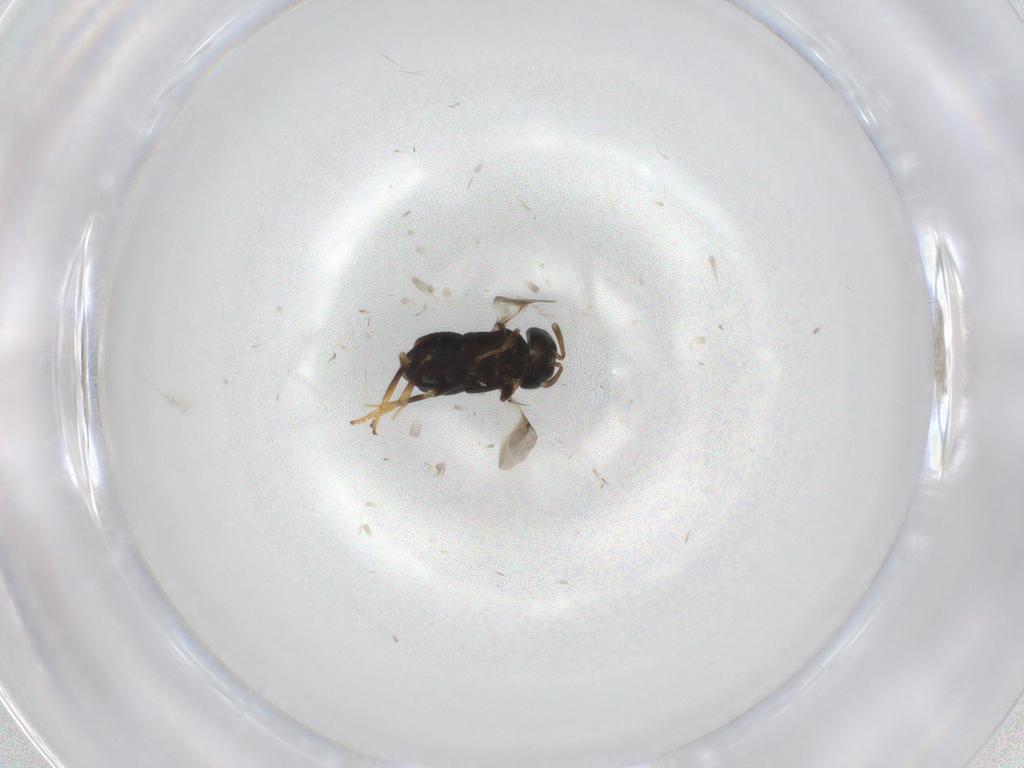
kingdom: Animalia
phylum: Arthropoda
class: Insecta
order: Hymenoptera
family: Encyrtidae
